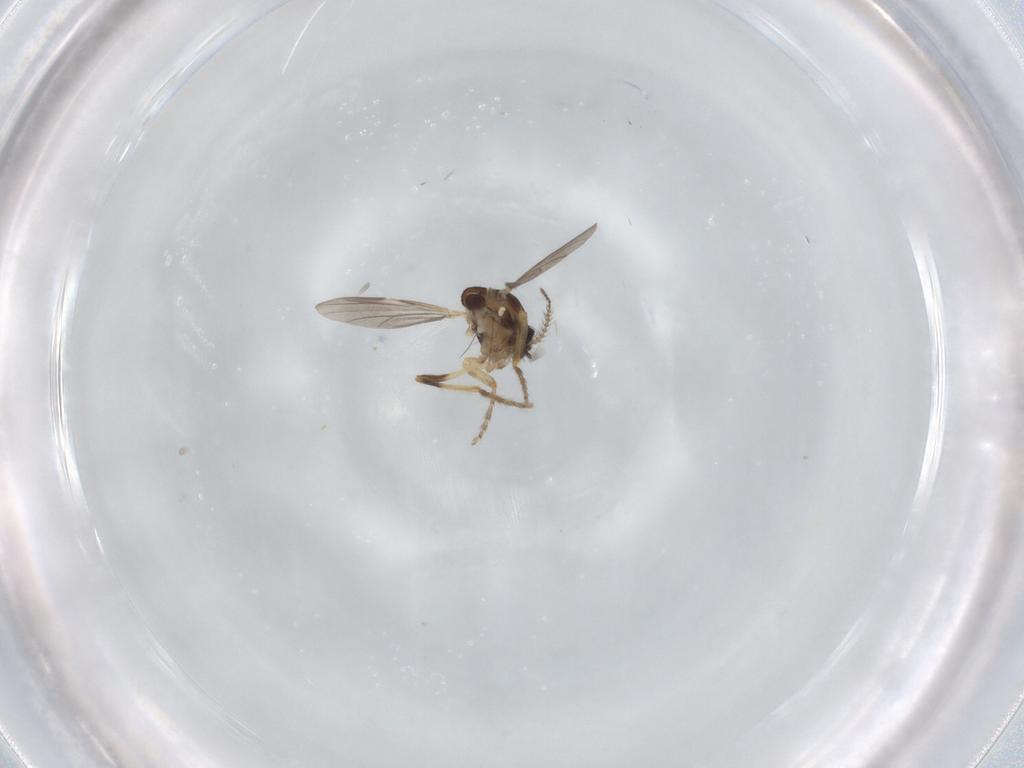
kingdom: Animalia
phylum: Arthropoda
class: Insecta
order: Diptera
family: Ceratopogonidae
